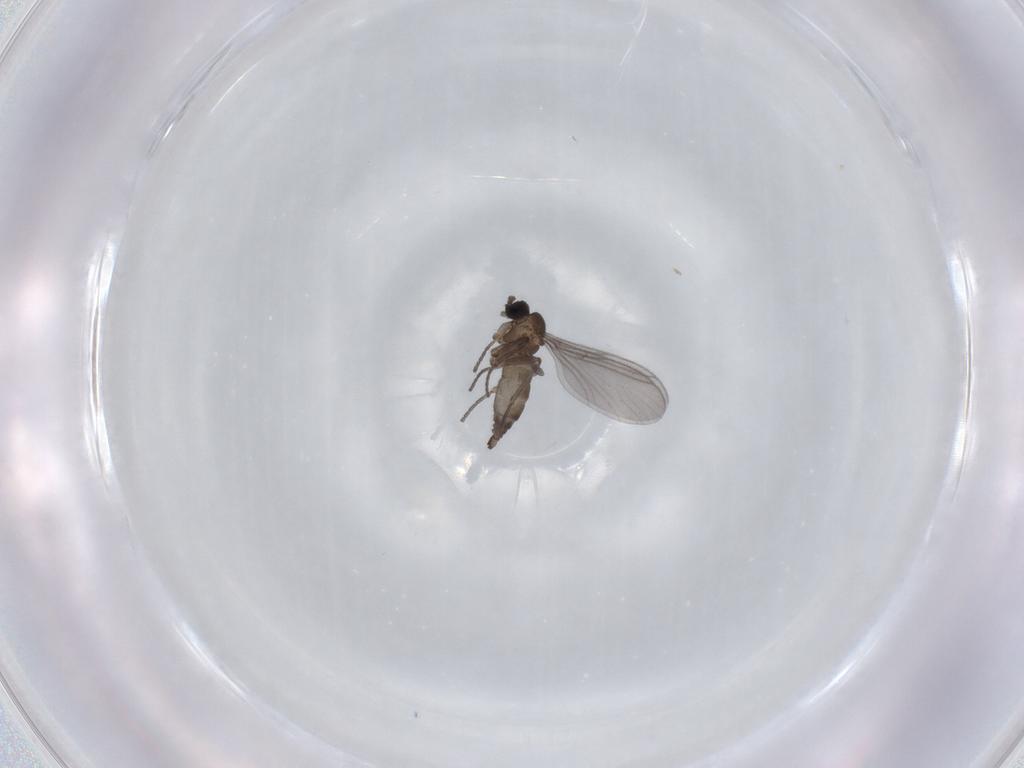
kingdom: Animalia
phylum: Arthropoda
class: Insecta
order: Diptera
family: Sciaridae
